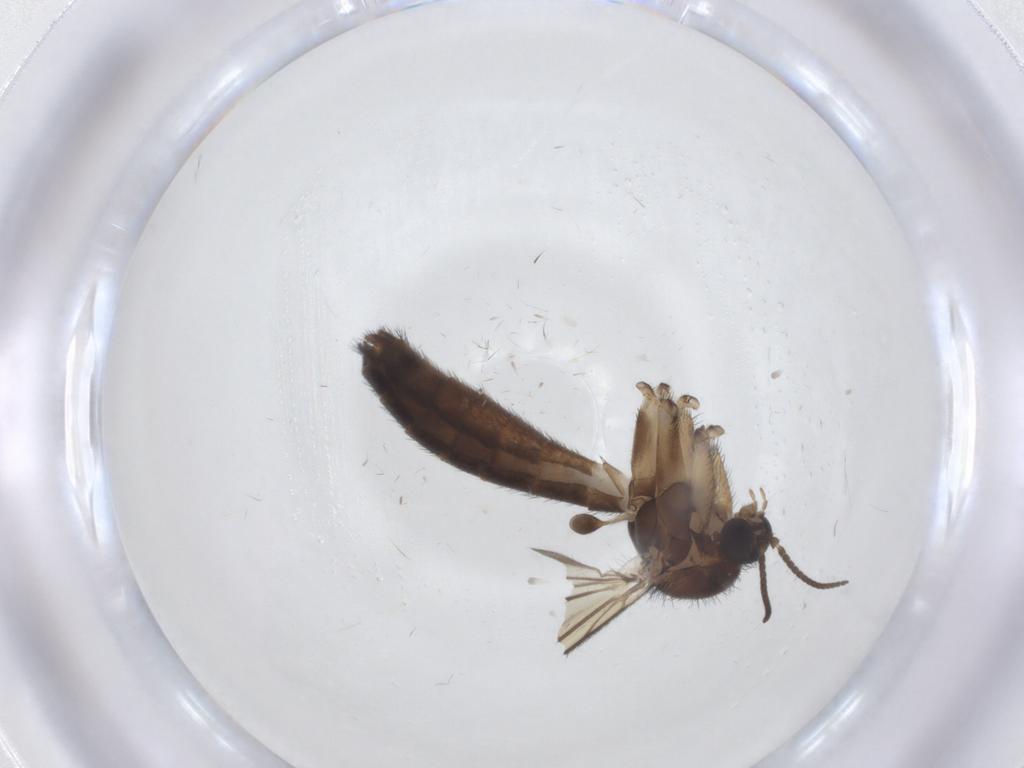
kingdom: Animalia
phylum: Arthropoda
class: Insecta
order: Diptera
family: Keroplatidae
